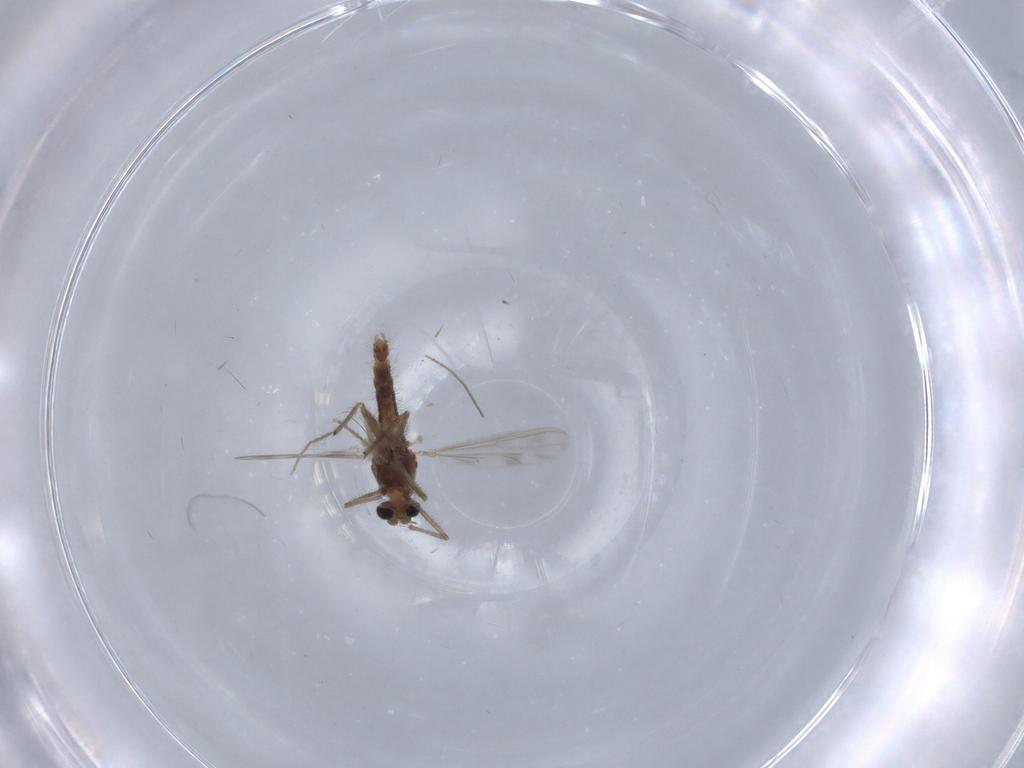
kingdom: Animalia
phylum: Arthropoda
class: Insecta
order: Diptera
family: Chironomidae
